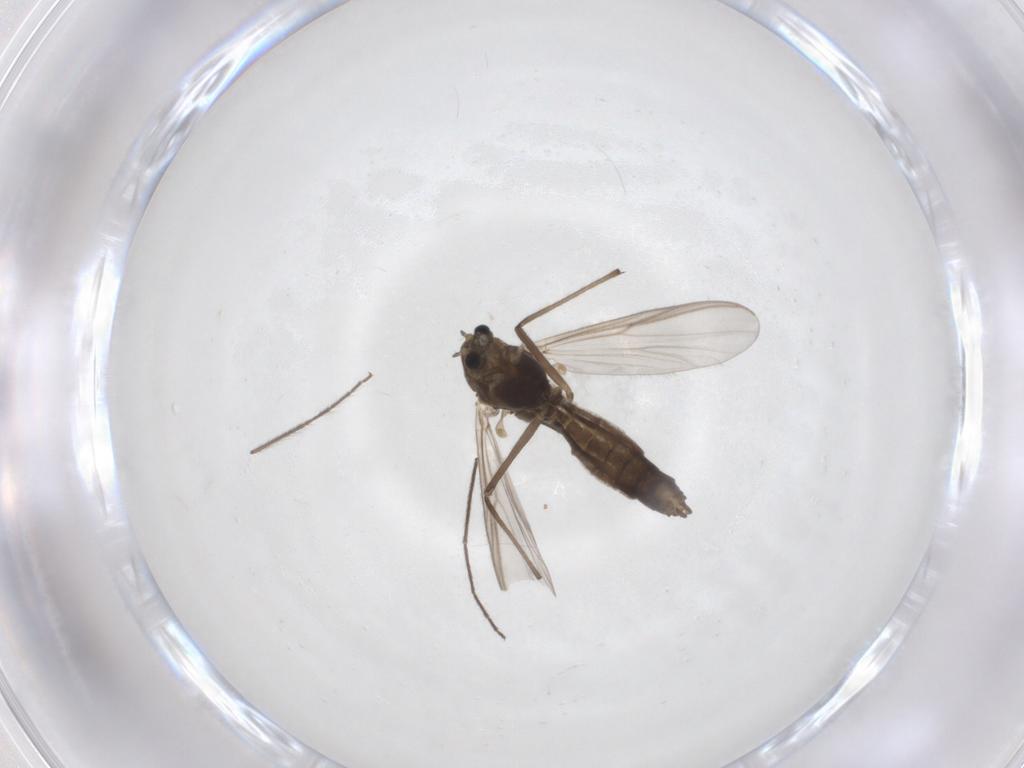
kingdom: Animalia
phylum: Arthropoda
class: Insecta
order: Diptera
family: Chironomidae
